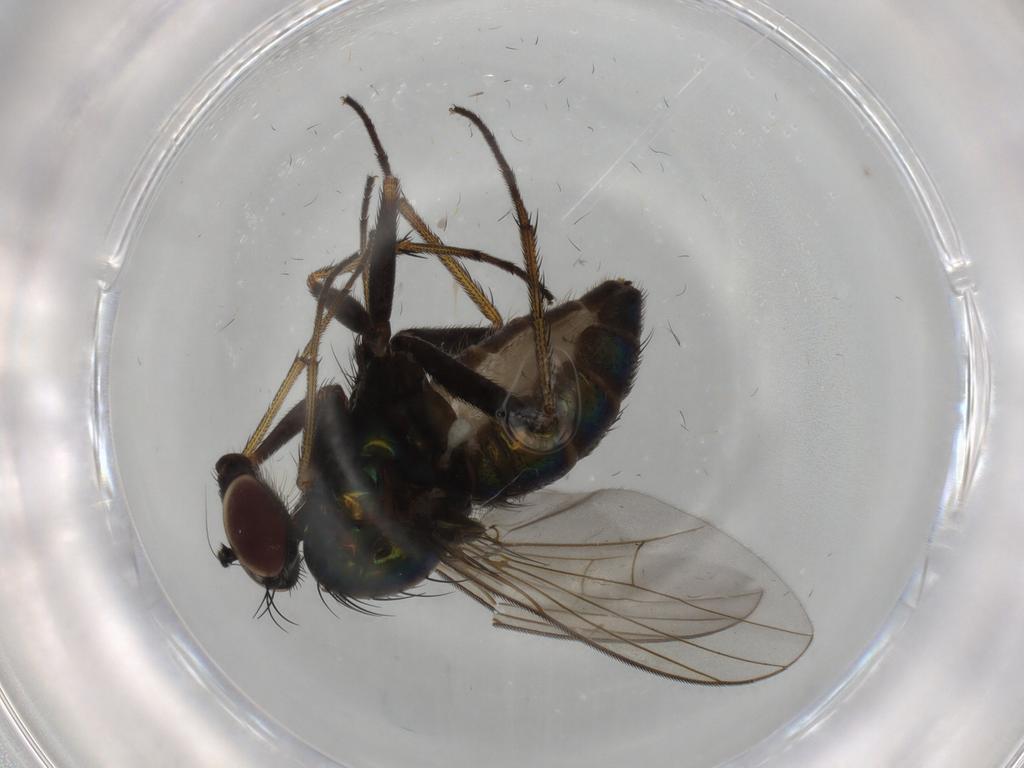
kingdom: Animalia
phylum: Arthropoda
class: Insecta
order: Diptera
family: Dolichopodidae
